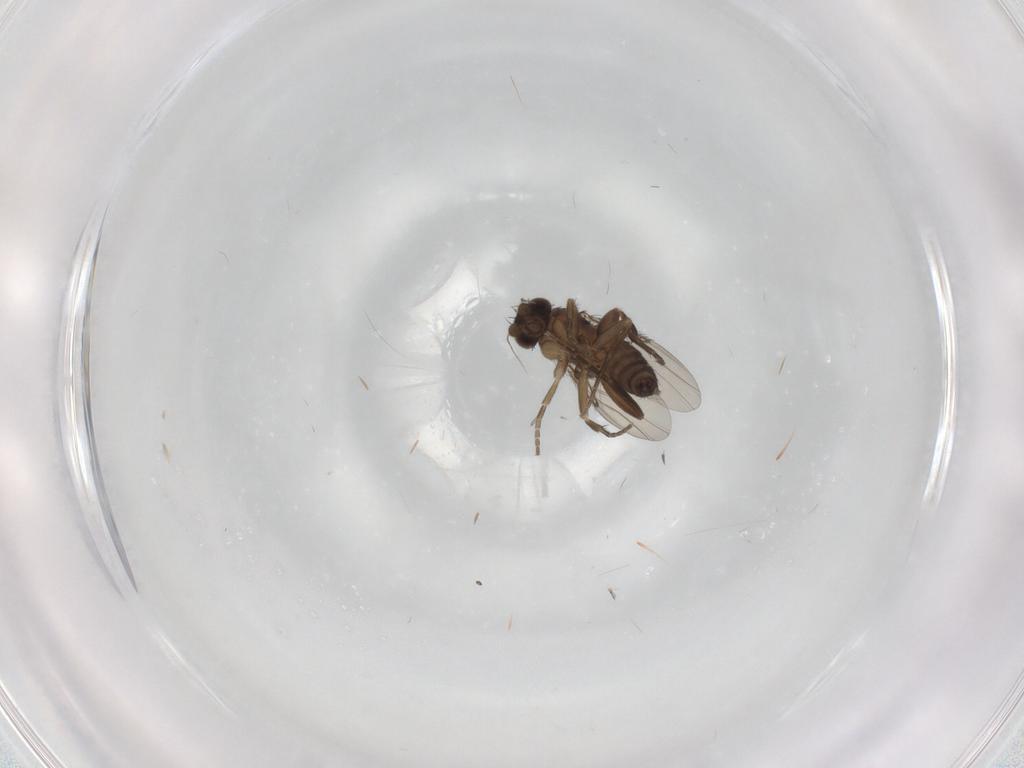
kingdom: Animalia
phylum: Arthropoda
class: Insecta
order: Diptera
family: Phoridae
